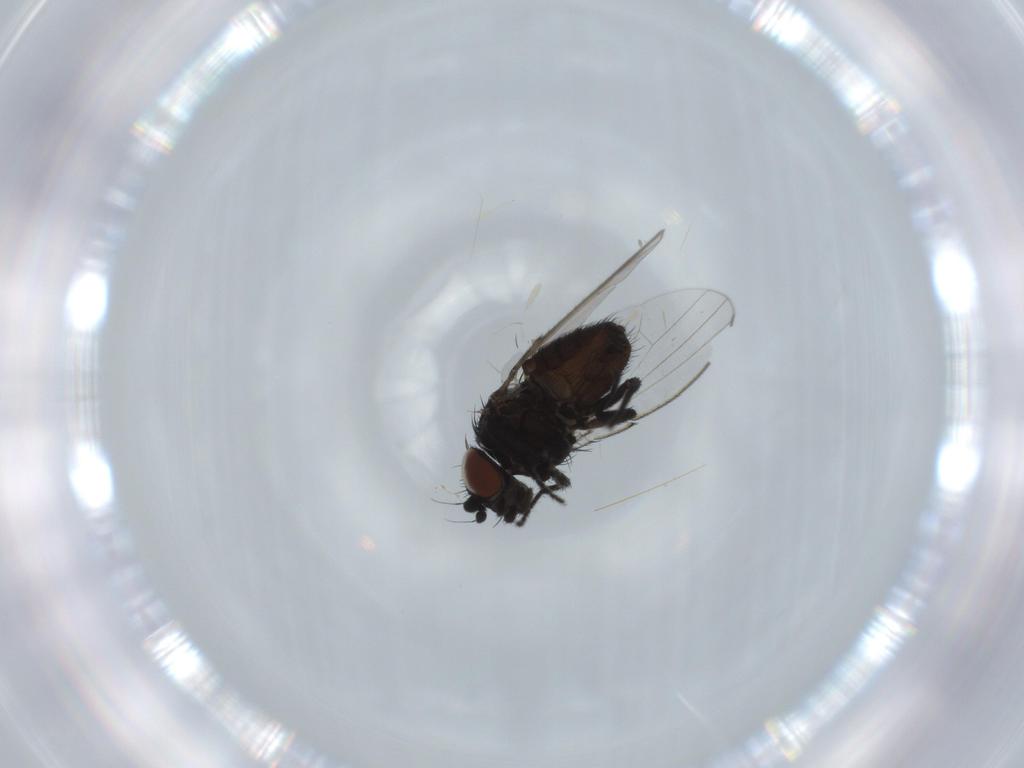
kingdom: Animalia
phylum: Arthropoda
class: Insecta
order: Diptera
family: Milichiidae
